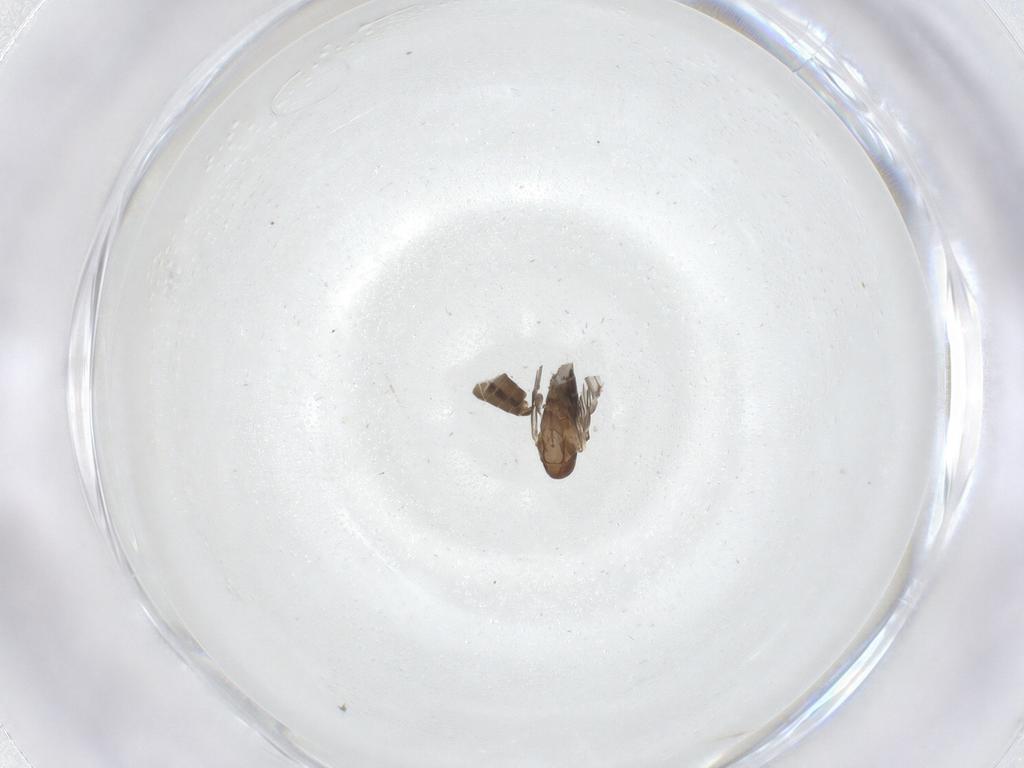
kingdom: Animalia
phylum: Arthropoda
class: Insecta
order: Diptera
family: Psychodidae
